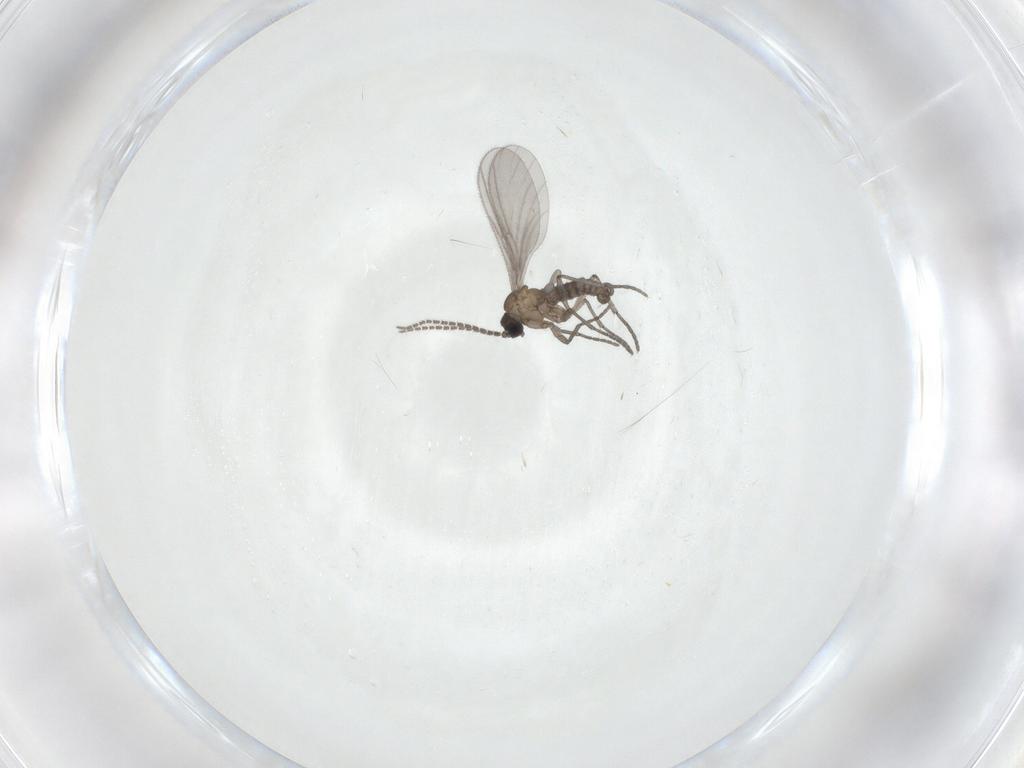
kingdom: Animalia
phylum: Arthropoda
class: Insecta
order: Diptera
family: Sciaridae
